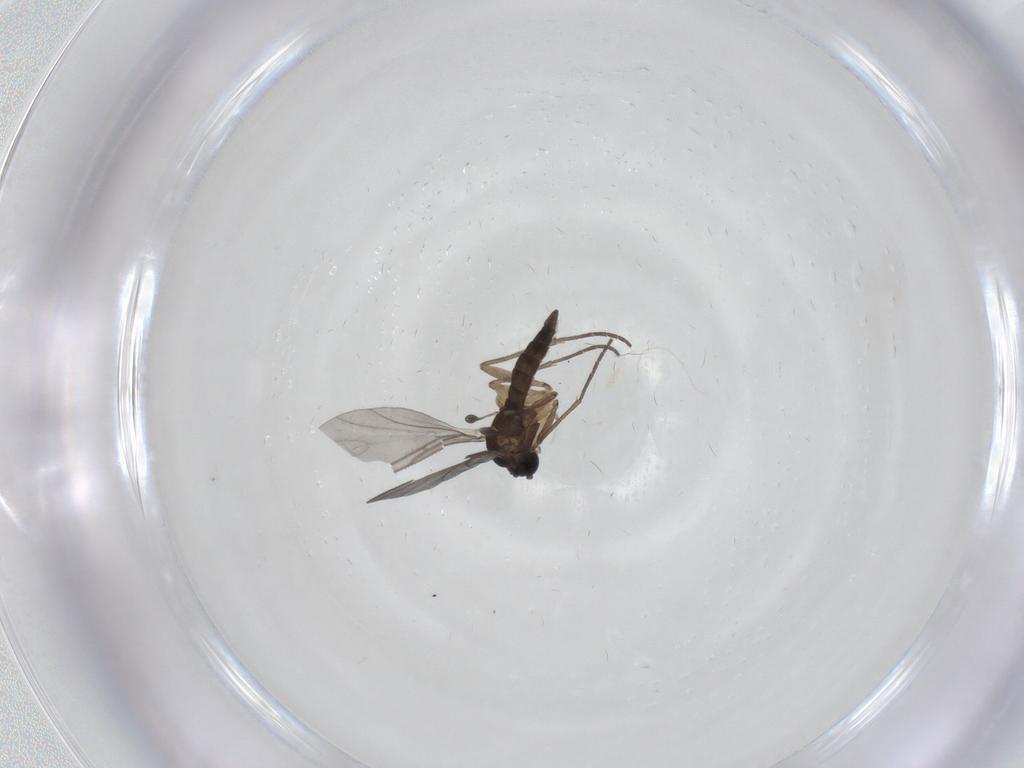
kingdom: Animalia
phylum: Arthropoda
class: Insecta
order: Diptera
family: Mycetophilidae
